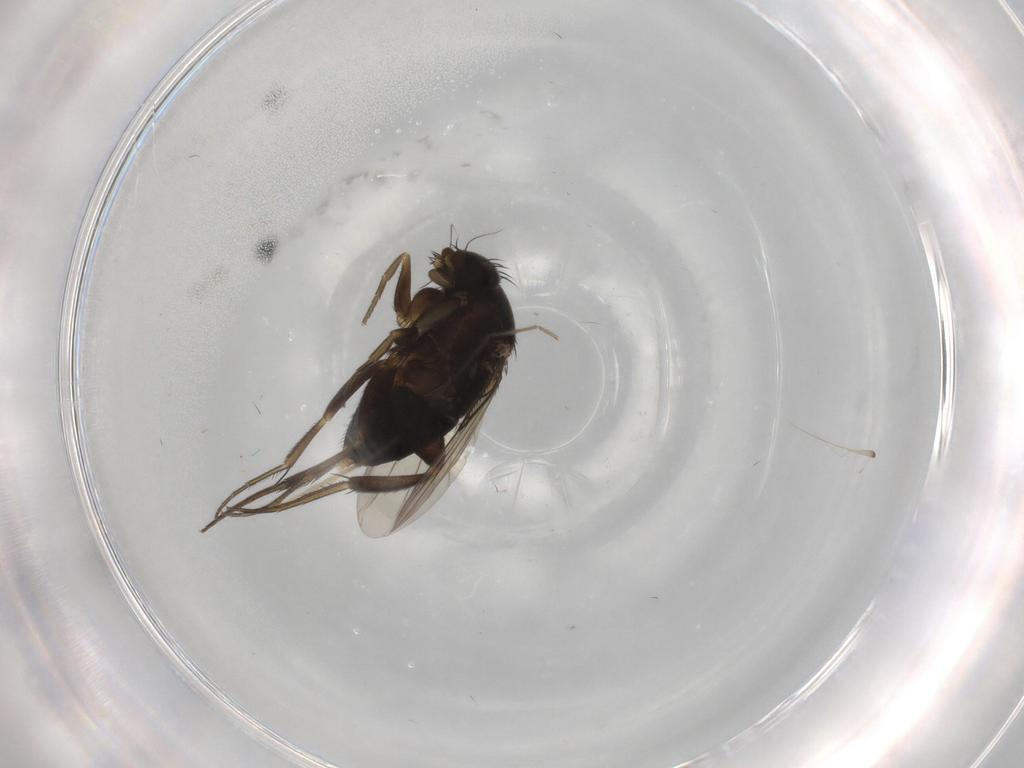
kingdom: Animalia
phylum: Arthropoda
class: Insecta
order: Diptera
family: Phoridae
